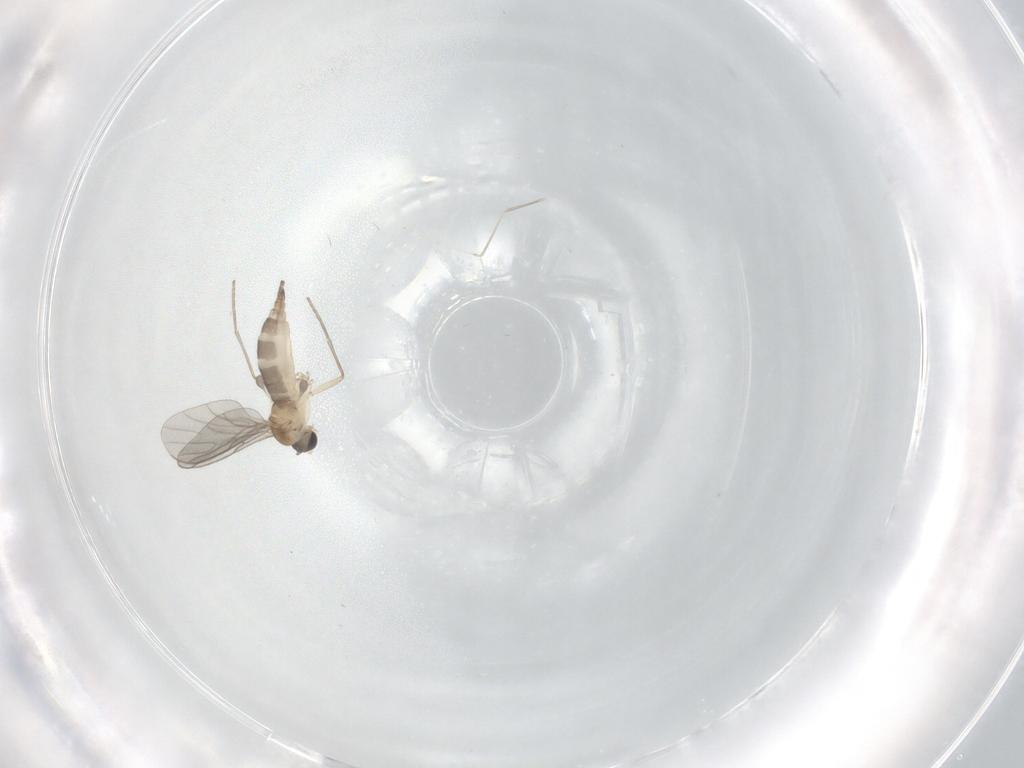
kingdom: Animalia
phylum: Arthropoda
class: Insecta
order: Diptera
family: Sciaridae
